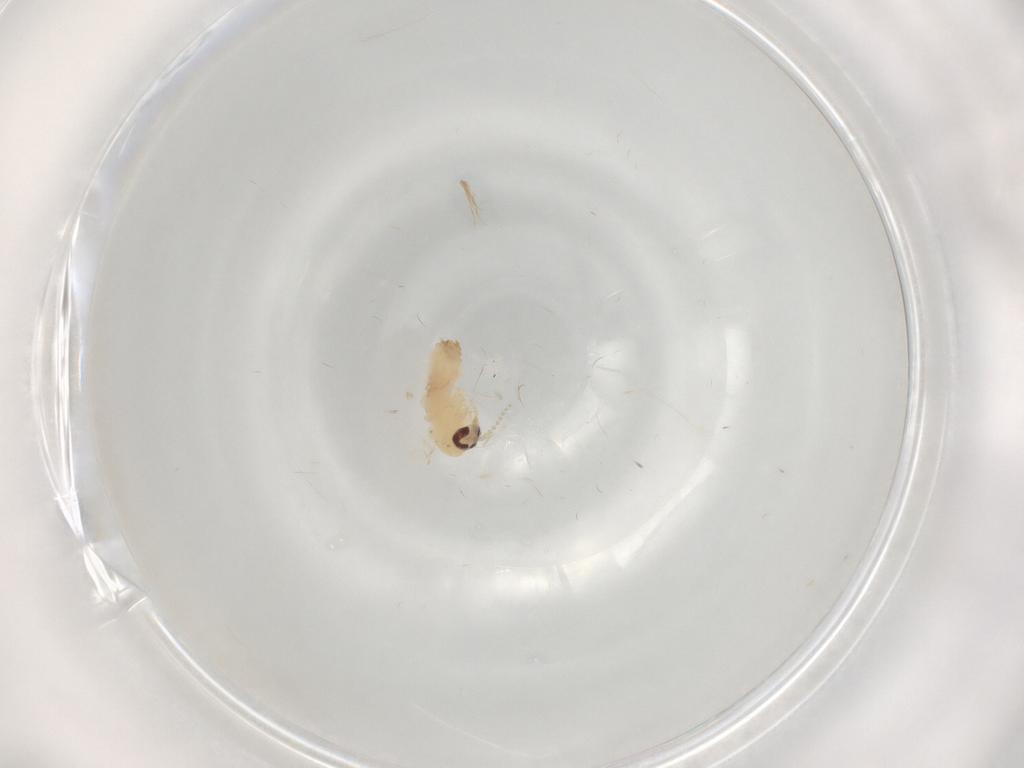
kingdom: Animalia
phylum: Arthropoda
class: Insecta
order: Diptera
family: Psychodidae
